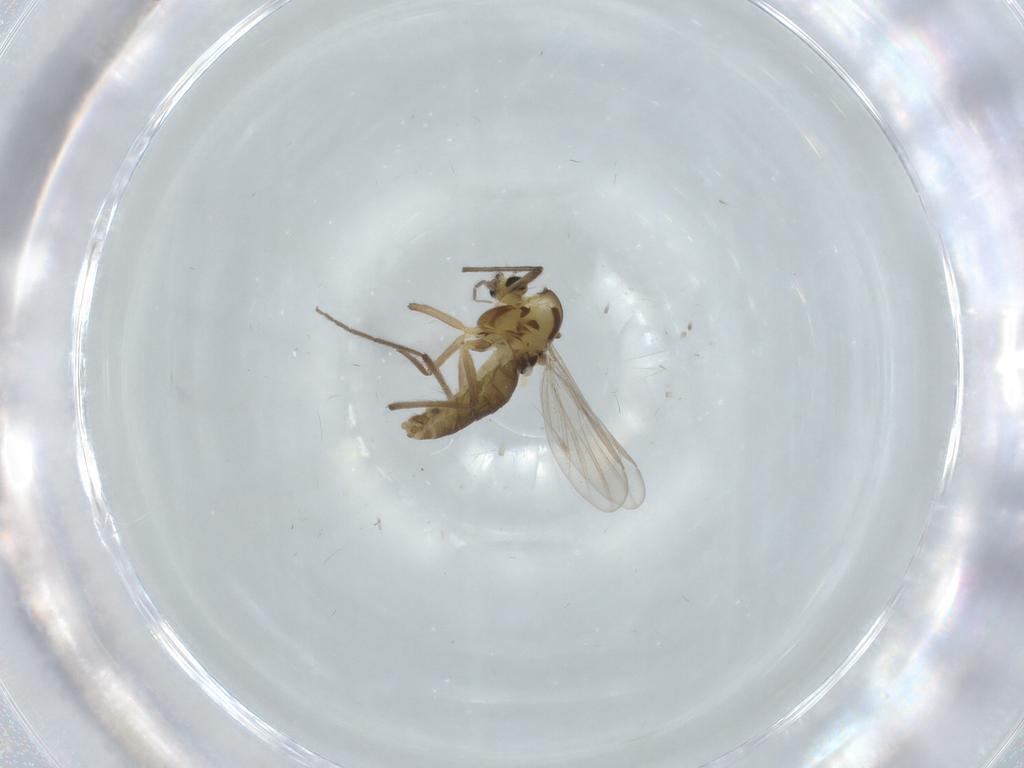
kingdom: Animalia
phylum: Arthropoda
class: Insecta
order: Diptera
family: Chironomidae
